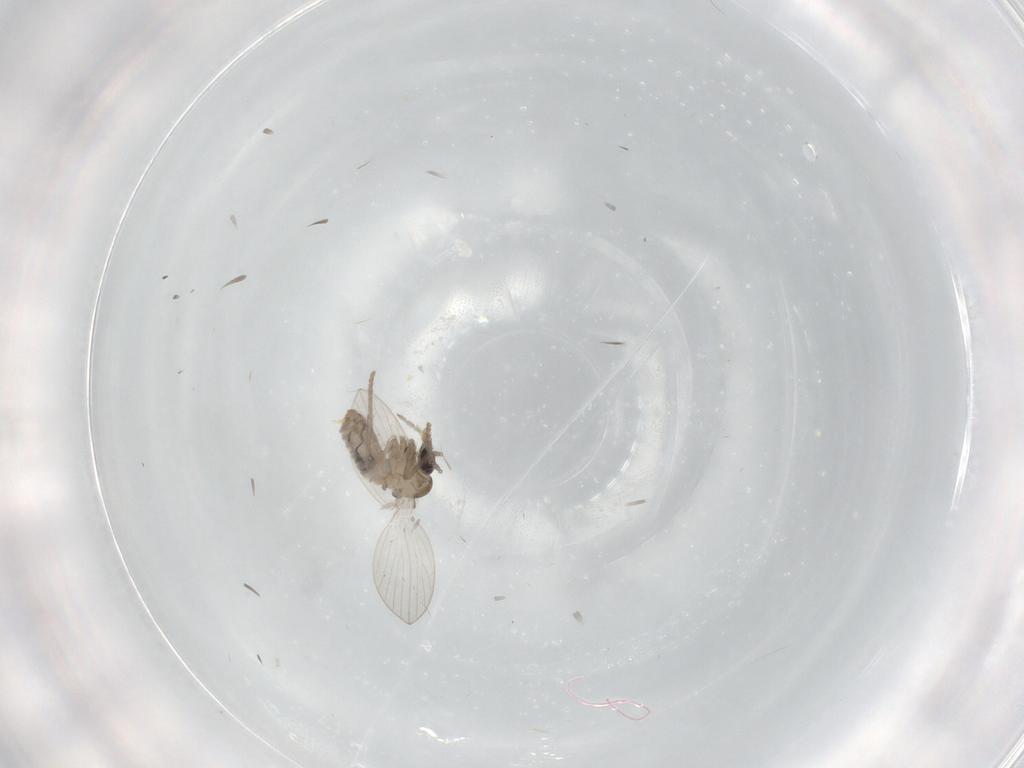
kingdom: Animalia
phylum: Arthropoda
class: Insecta
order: Diptera
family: Psychodidae
